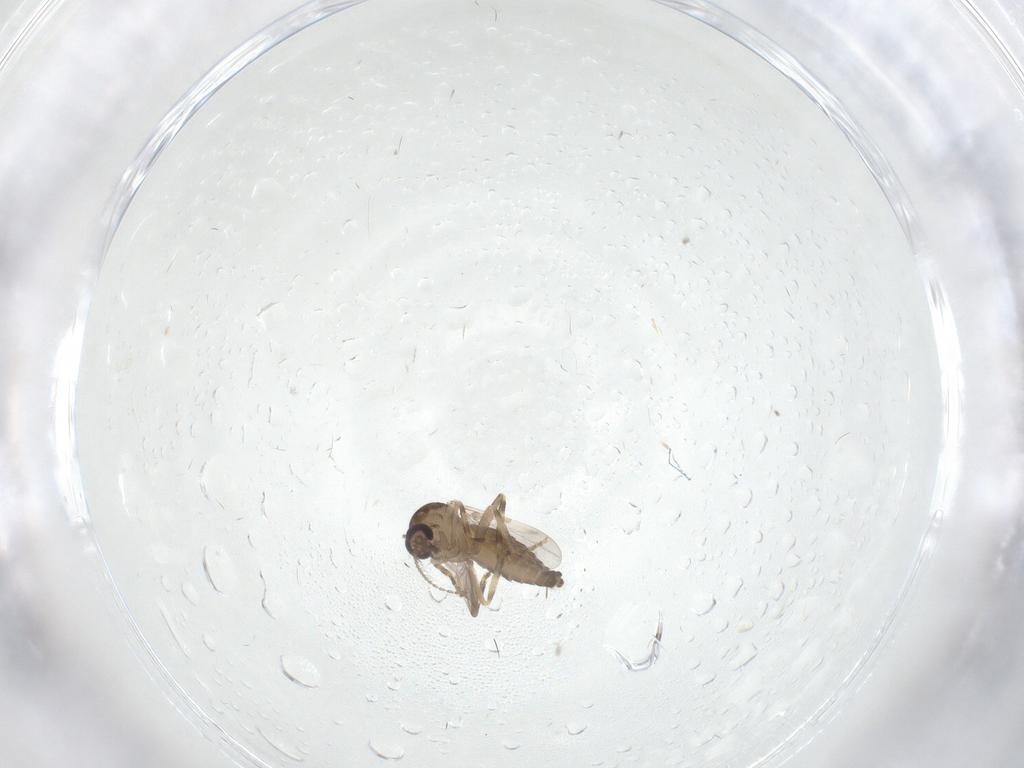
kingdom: Animalia
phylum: Arthropoda
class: Insecta
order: Diptera
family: Ceratopogonidae
